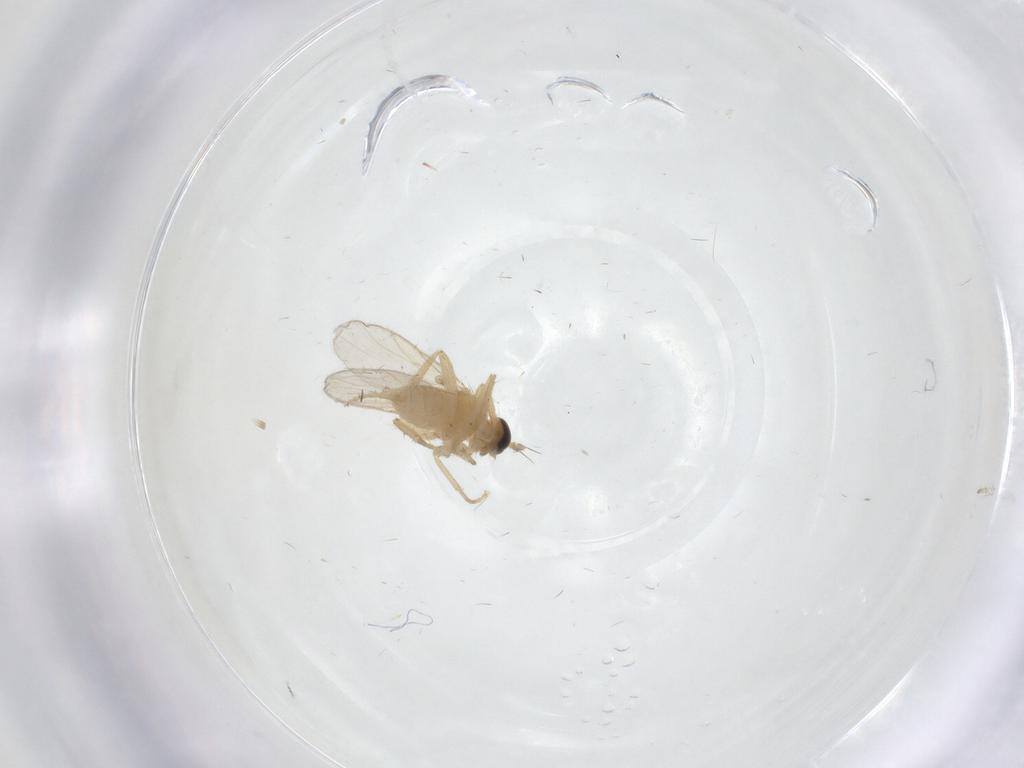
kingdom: Animalia
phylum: Arthropoda
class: Insecta
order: Diptera
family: Hybotidae
